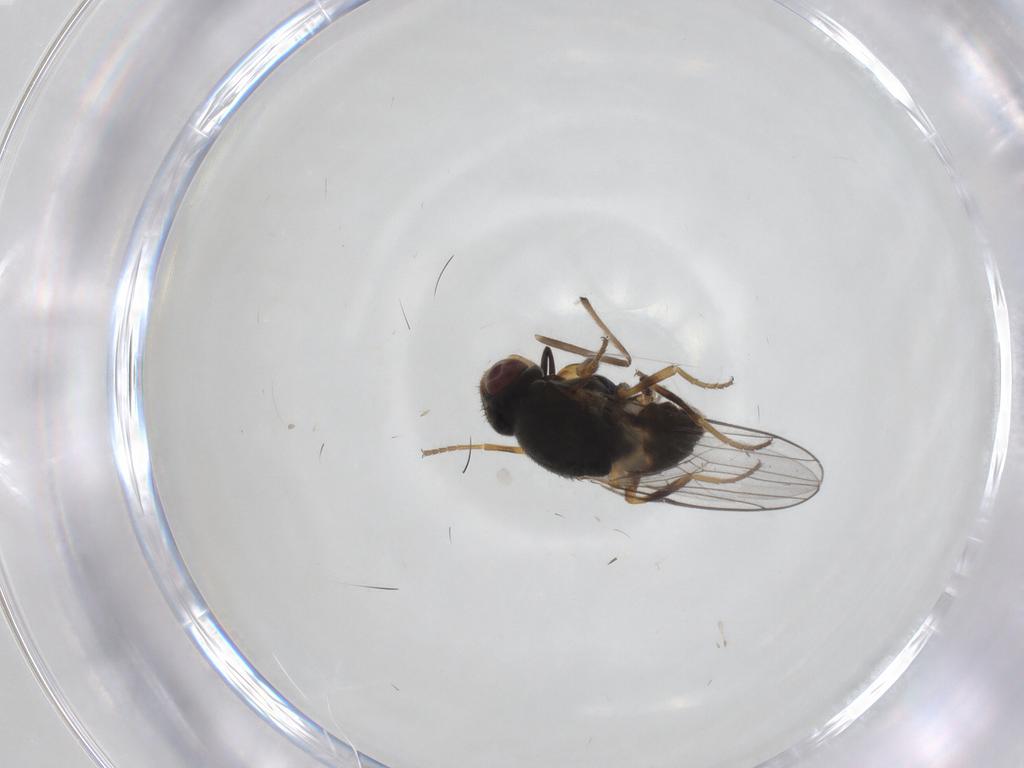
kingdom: Animalia
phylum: Arthropoda
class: Insecta
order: Diptera
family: Chloropidae
